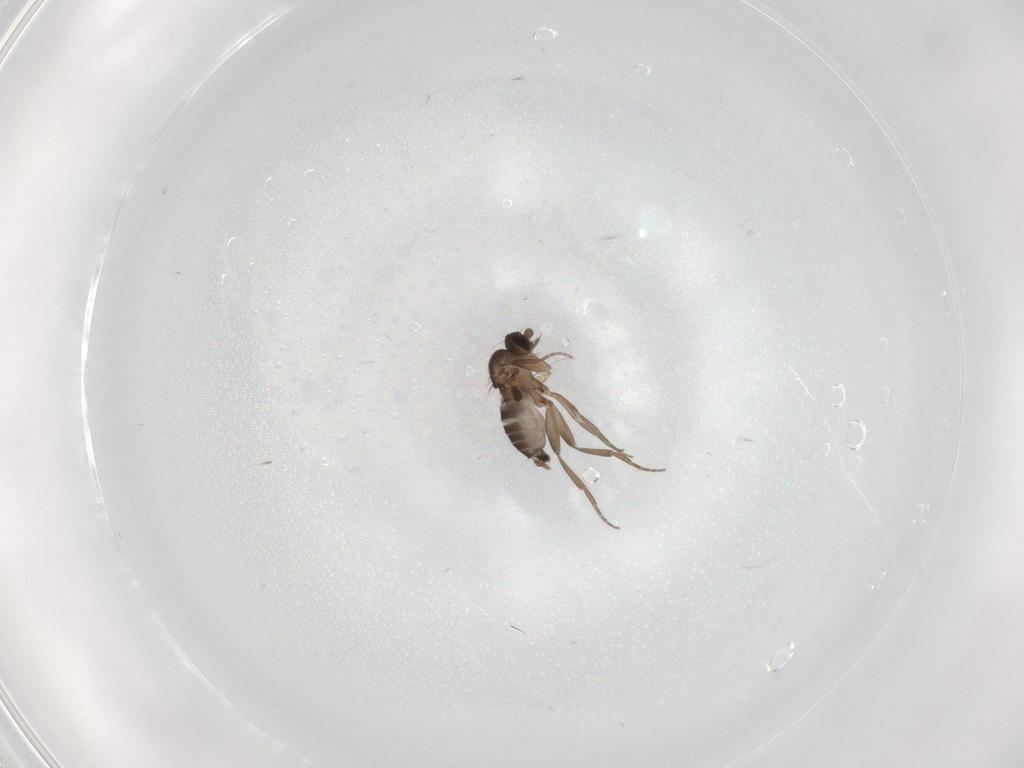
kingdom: Animalia
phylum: Arthropoda
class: Insecta
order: Diptera
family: Phoridae
